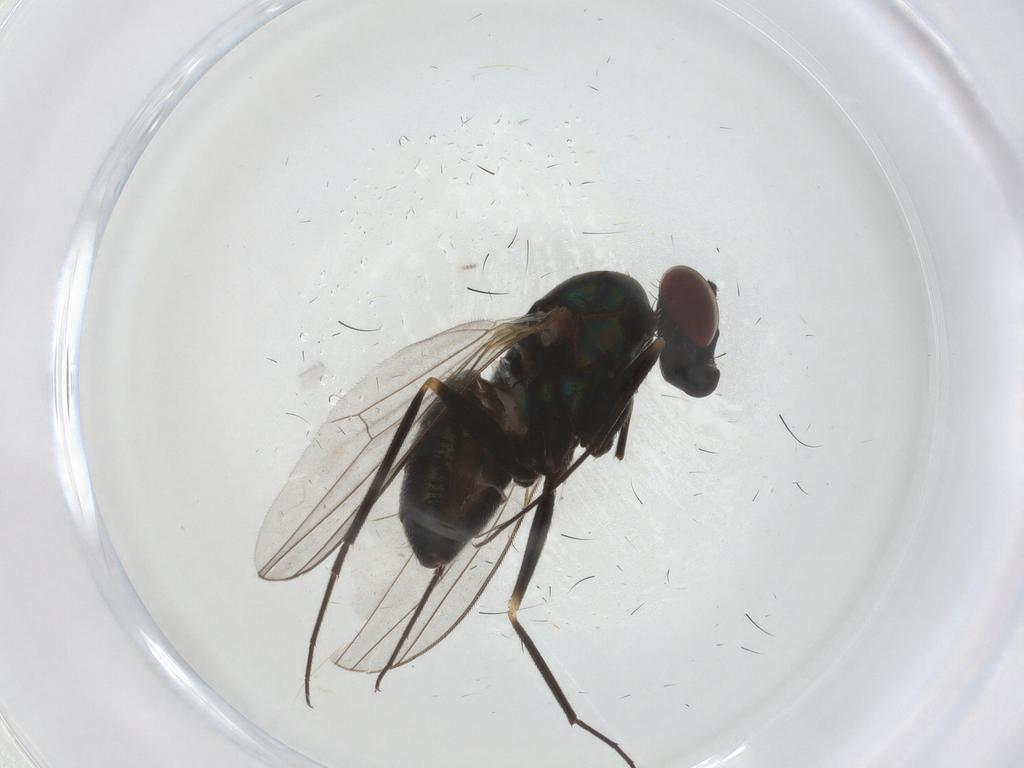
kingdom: Animalia
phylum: Arthropoda
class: Insecta
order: Diptera
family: Dolichopodidae
